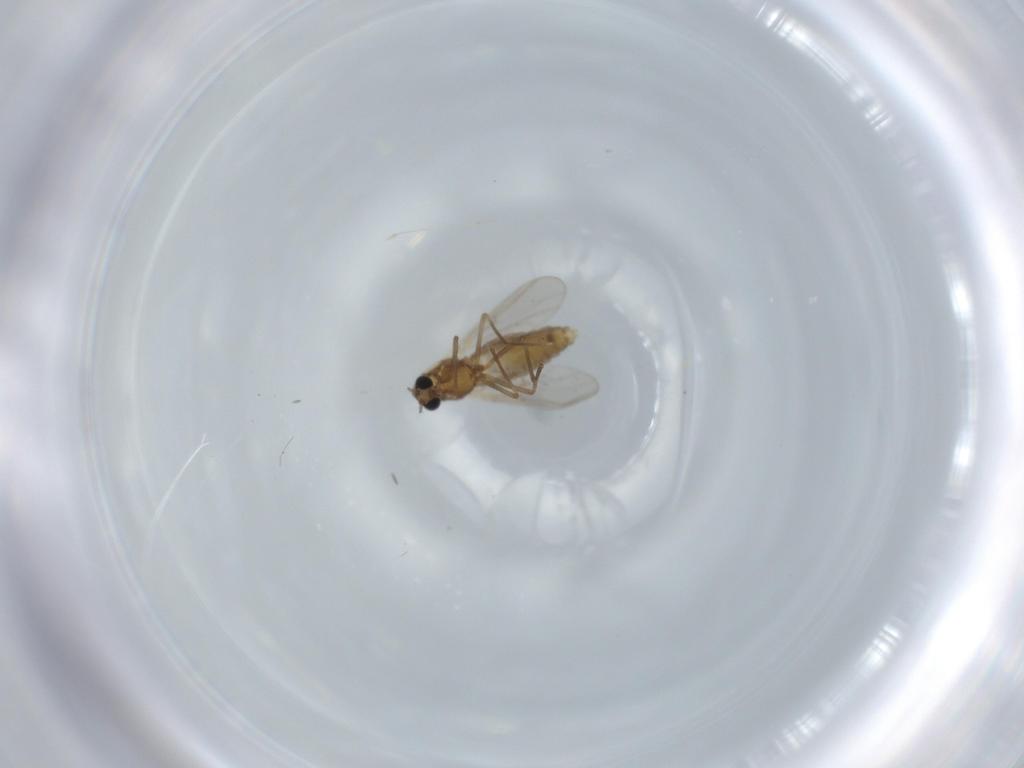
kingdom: Animalia
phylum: Arthropoda
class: Insecta
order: Diptera
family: Chironomidae
